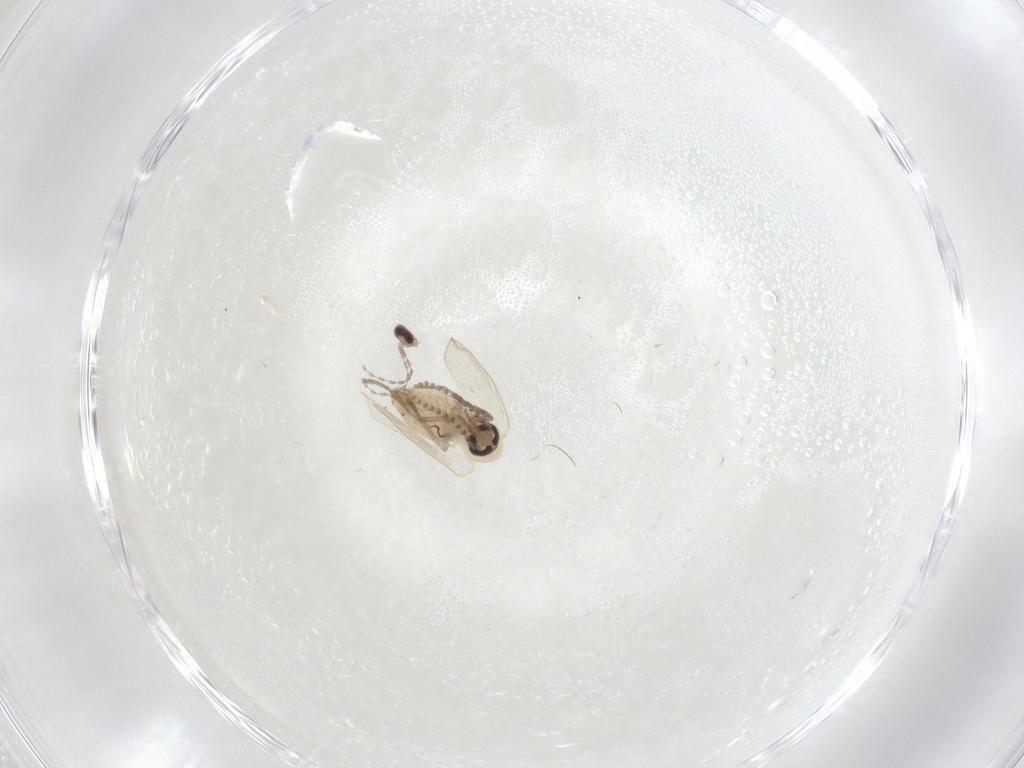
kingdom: Animalia
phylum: Arthropoda
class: Insecta
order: Diptera
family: Psychodidae
